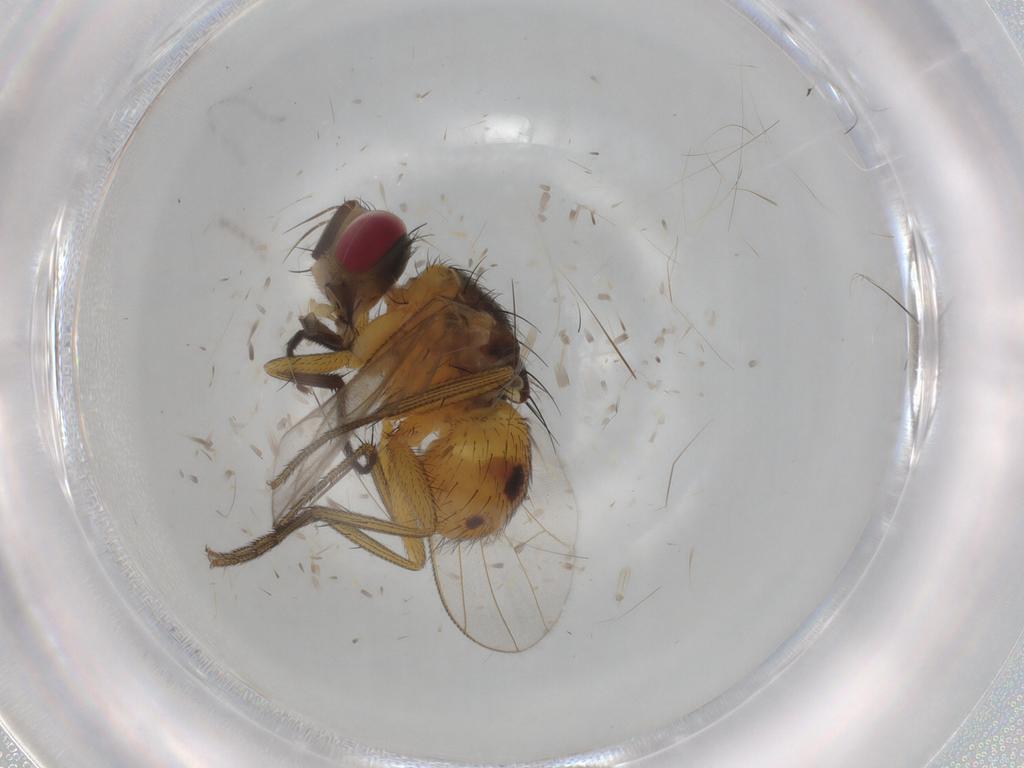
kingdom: Animalia
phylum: Arthropoda
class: Insecta
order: Diptera
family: Muscidae
